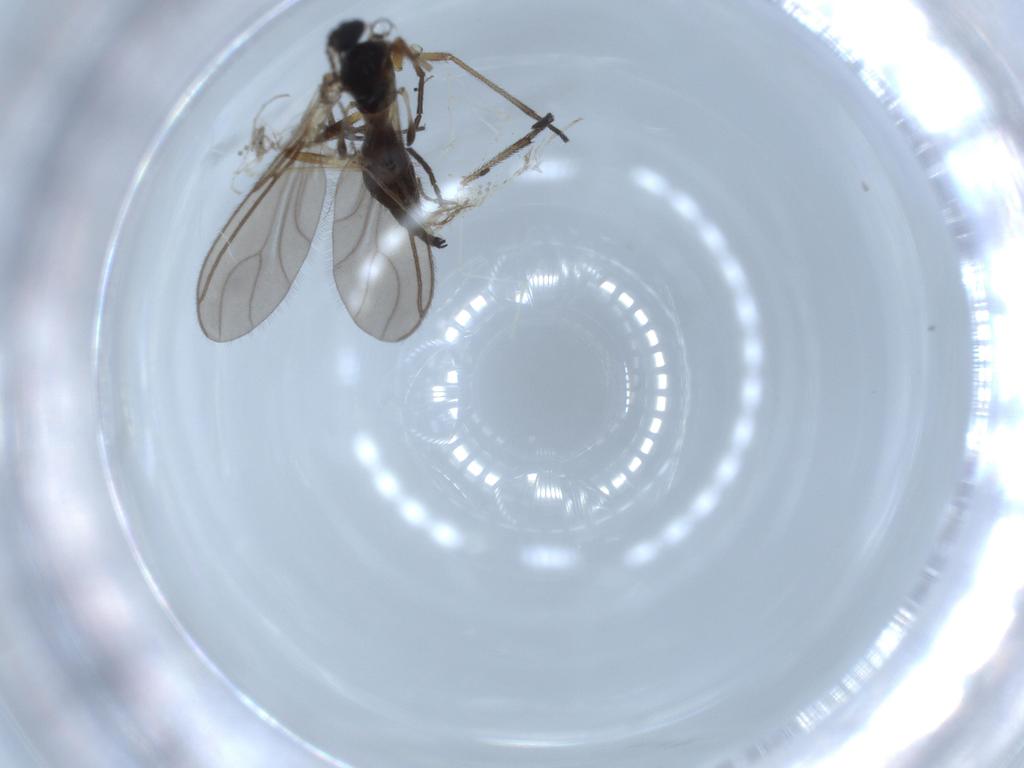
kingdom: Animalia
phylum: Arthropoda
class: Insecta
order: Diptera
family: Sciaridae
